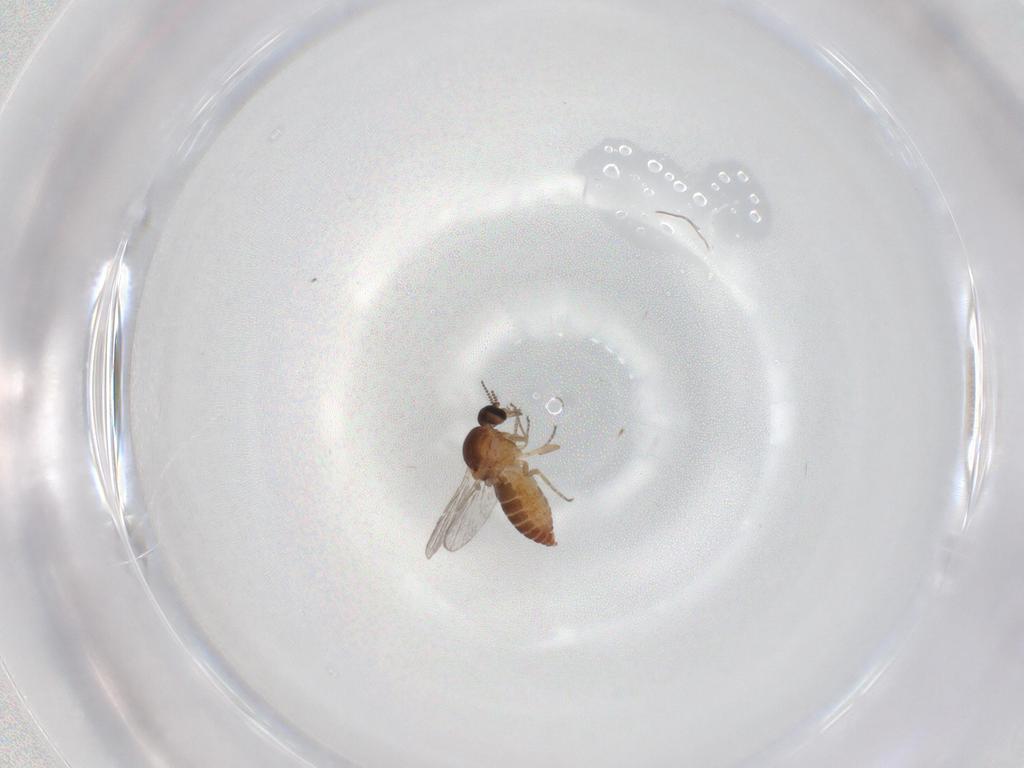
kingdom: Animalia
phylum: Arthropoda
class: Insecta
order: Diptera
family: Ceratopogonidae
